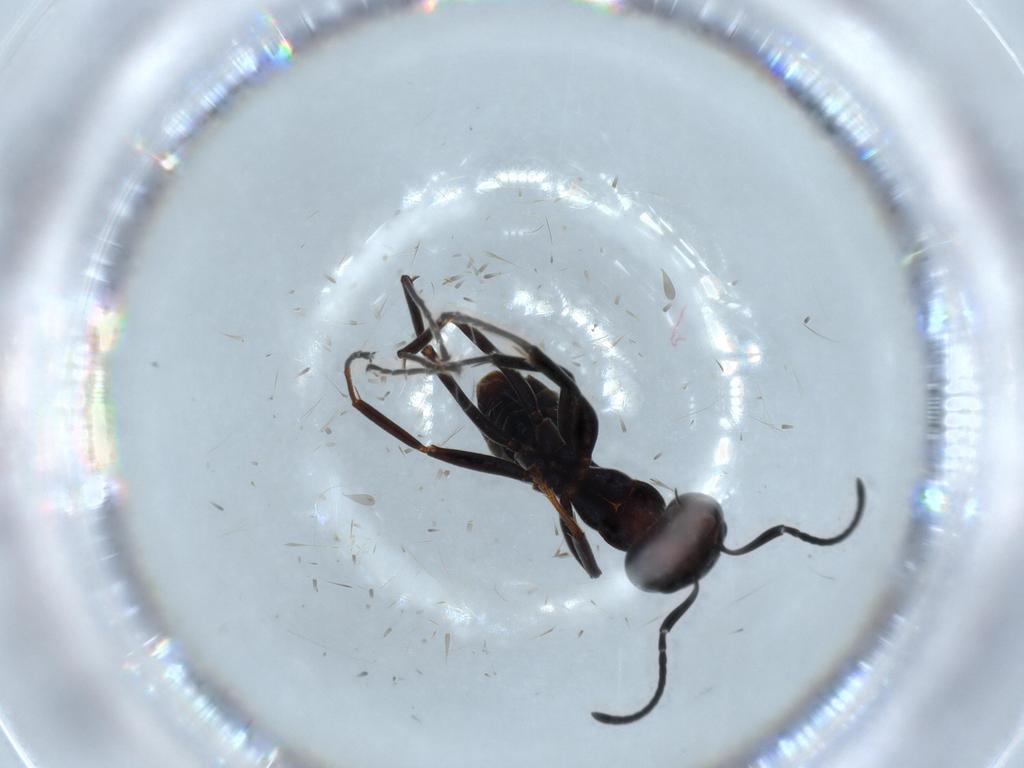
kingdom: Animalia
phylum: Arthropoda
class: Insecta
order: Hymenoptera
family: Formicidae
